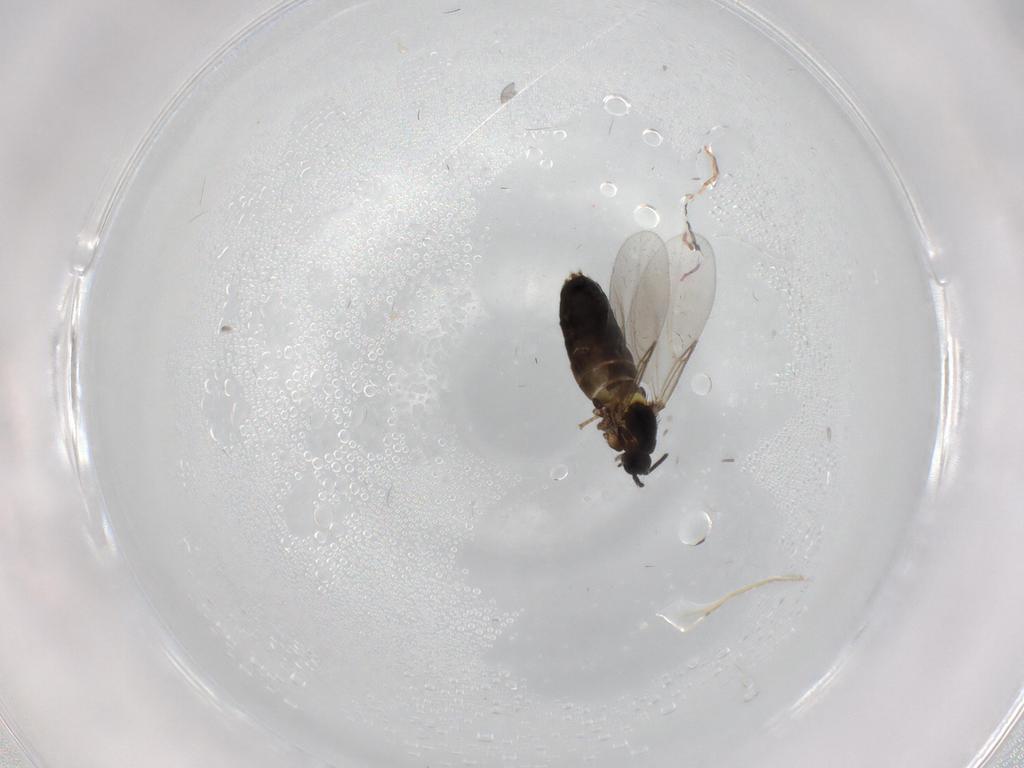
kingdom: Animalia
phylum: Arthropoda
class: Insecta
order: Diptera
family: Scatopsidae
